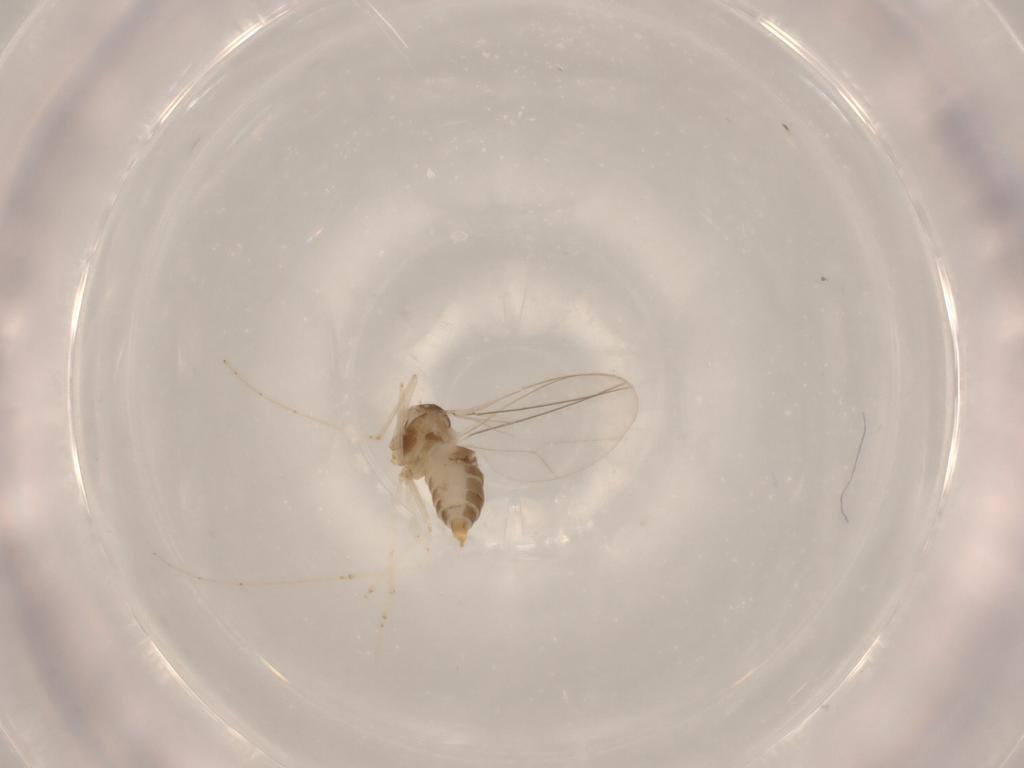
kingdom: Animalia
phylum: Arthropoda
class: Insecta
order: Diptera
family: Cecidomyiidae
